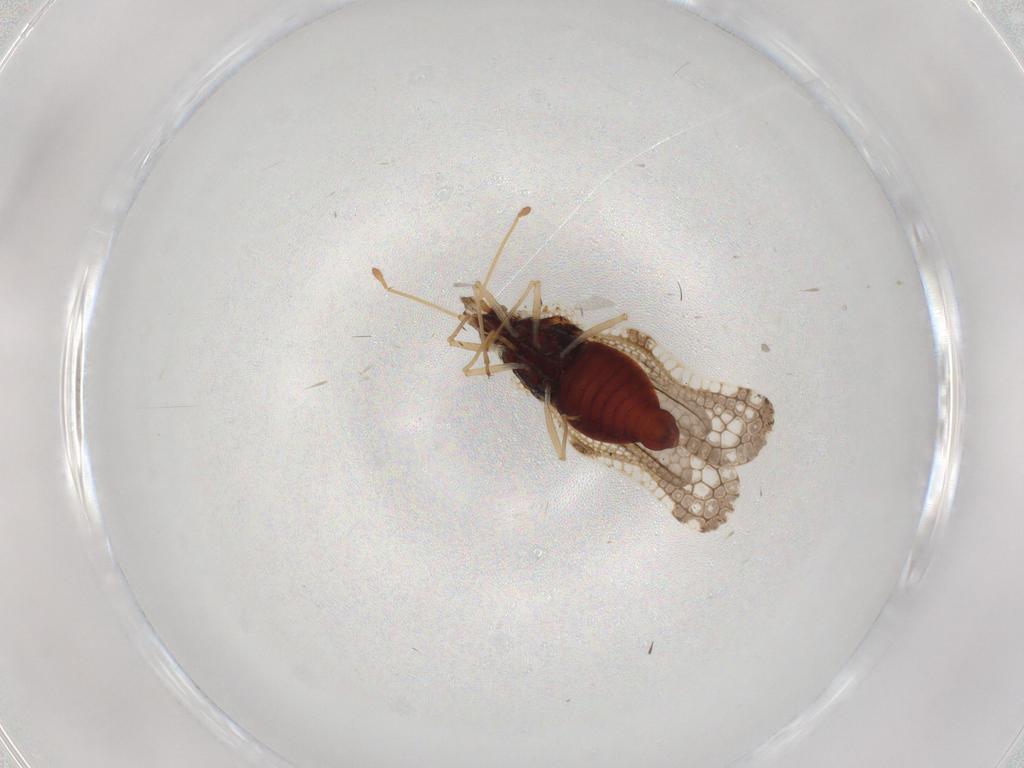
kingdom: Animalia
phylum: Arthropoda
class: Insecta
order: Hemiptera
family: Tingidae
